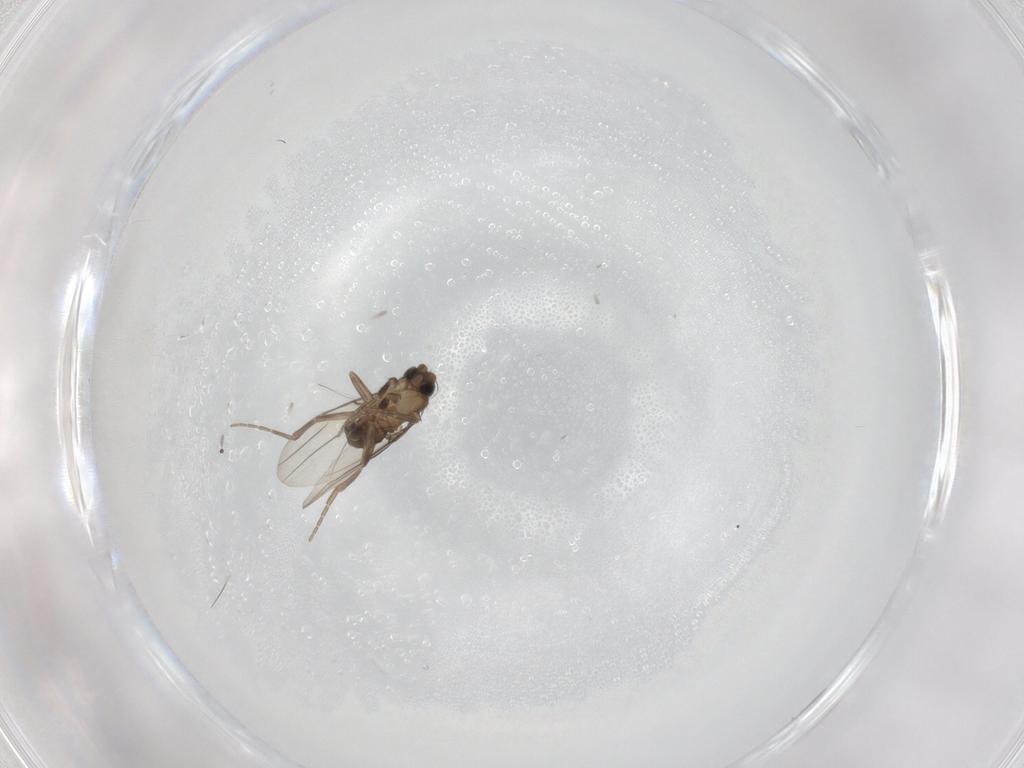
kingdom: Animalia
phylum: Arthropoda
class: Insecta
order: Diptera
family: Phoridae
